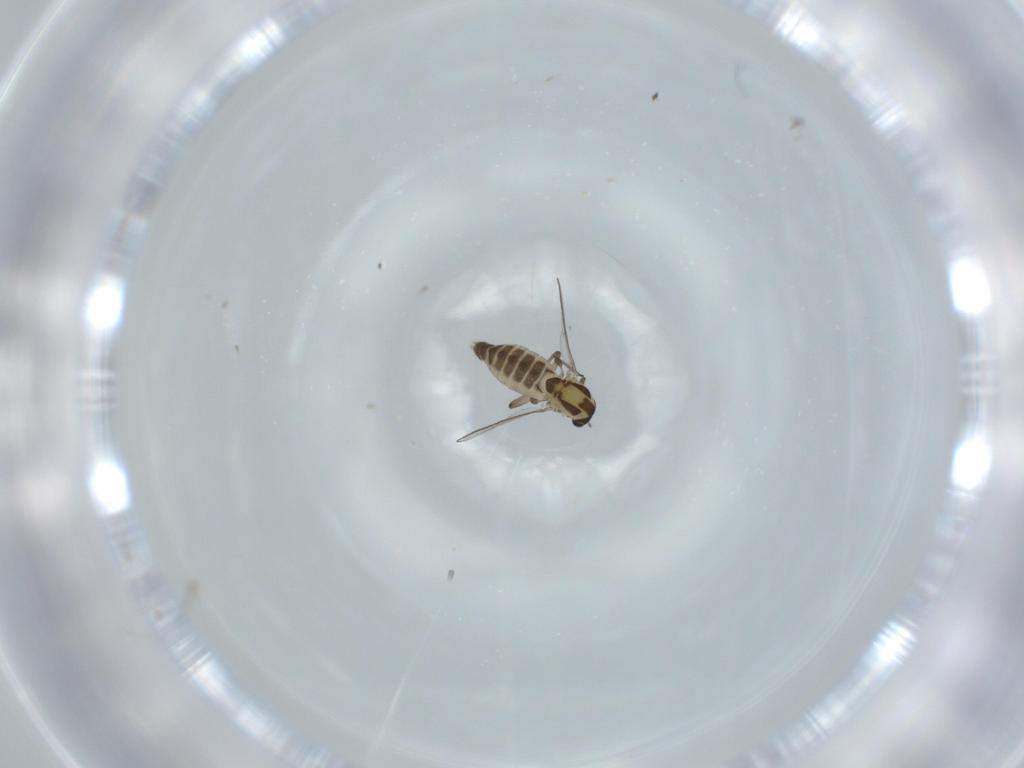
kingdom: Animalia
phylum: Arthropoda
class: Insecta
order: Diptera
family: Chironomidae
